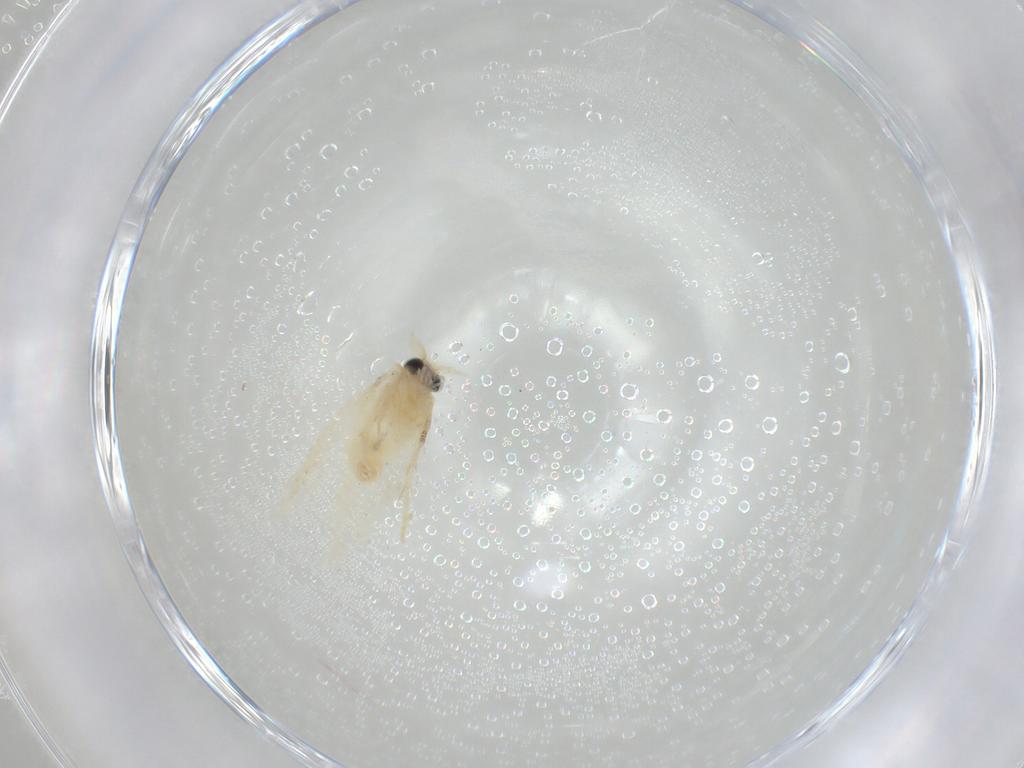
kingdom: Animalia
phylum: Arthropoda
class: Insecta
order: Lepidoptera
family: Nepticulidae
